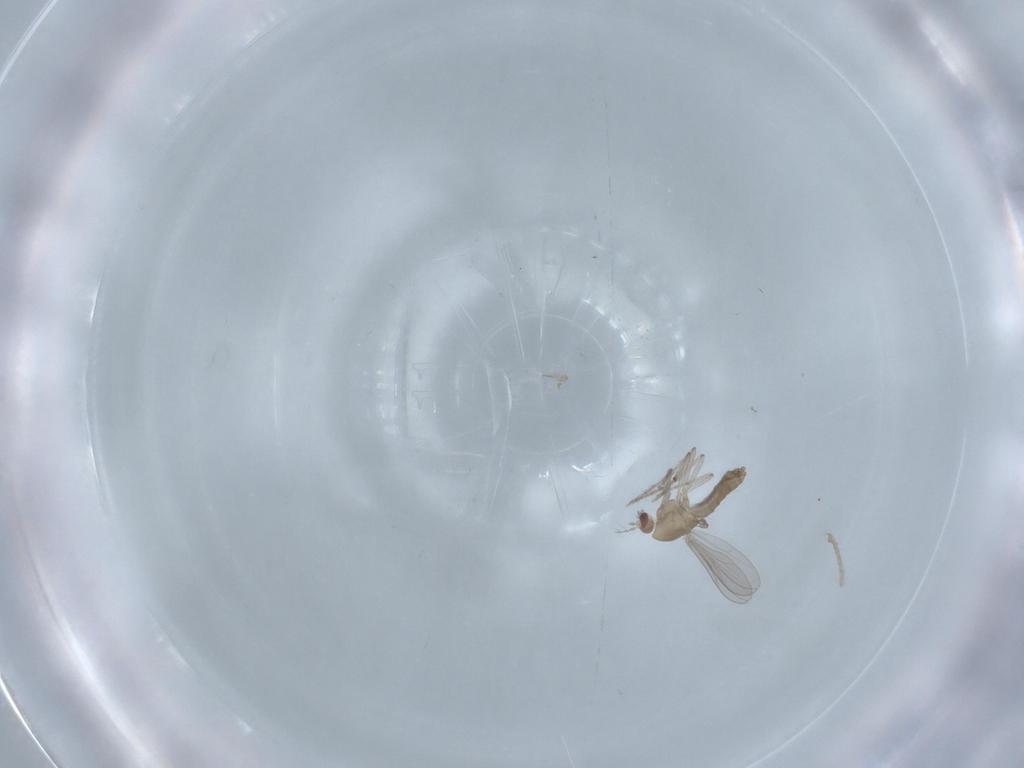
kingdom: Animalia
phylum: Arthropoda
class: Insecta
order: Diptera
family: Chironomidae
